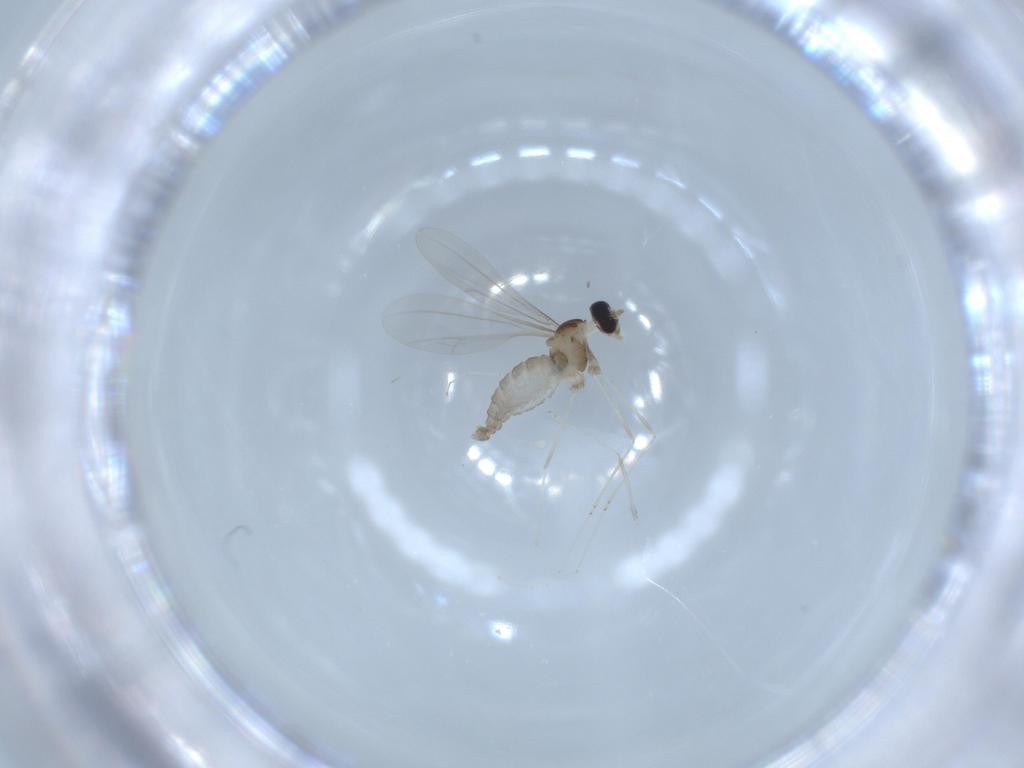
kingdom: Animalia
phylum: Arthropoda
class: Insecta
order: Diptera
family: Cecidomyiidae
